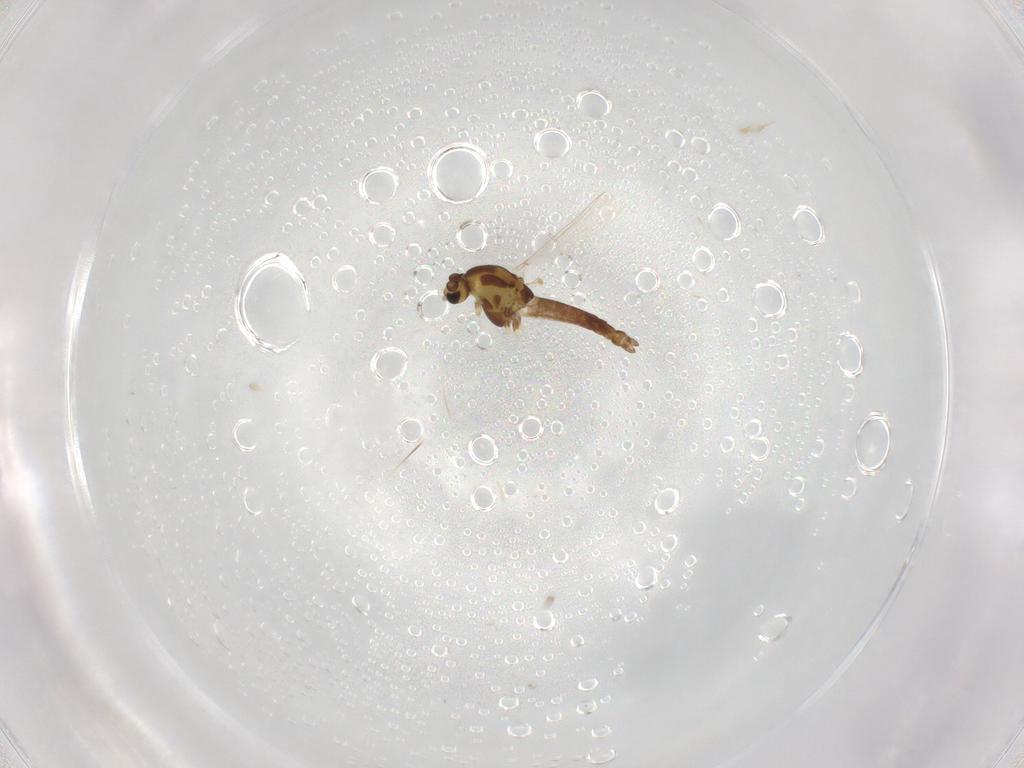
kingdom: Animalia
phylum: Arthropoda
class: Insecta
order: Diptera
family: Chironomidae
